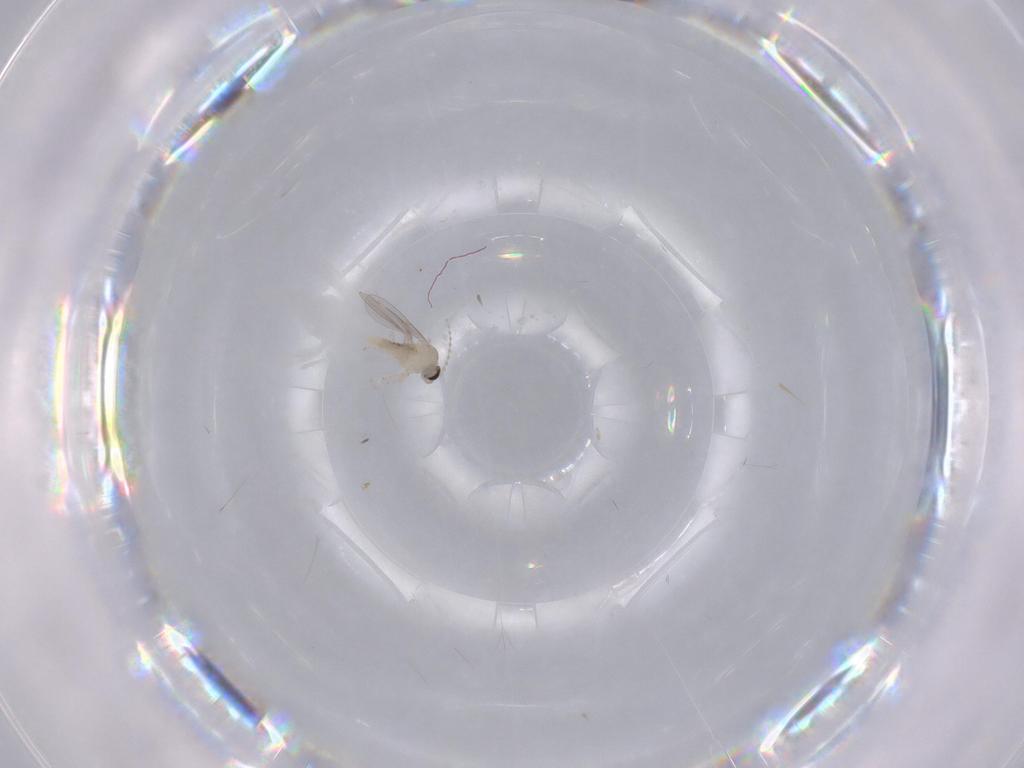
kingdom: Animalia
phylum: Arthropoda
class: Insecta
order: Diptera
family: Cecidomyiidae
